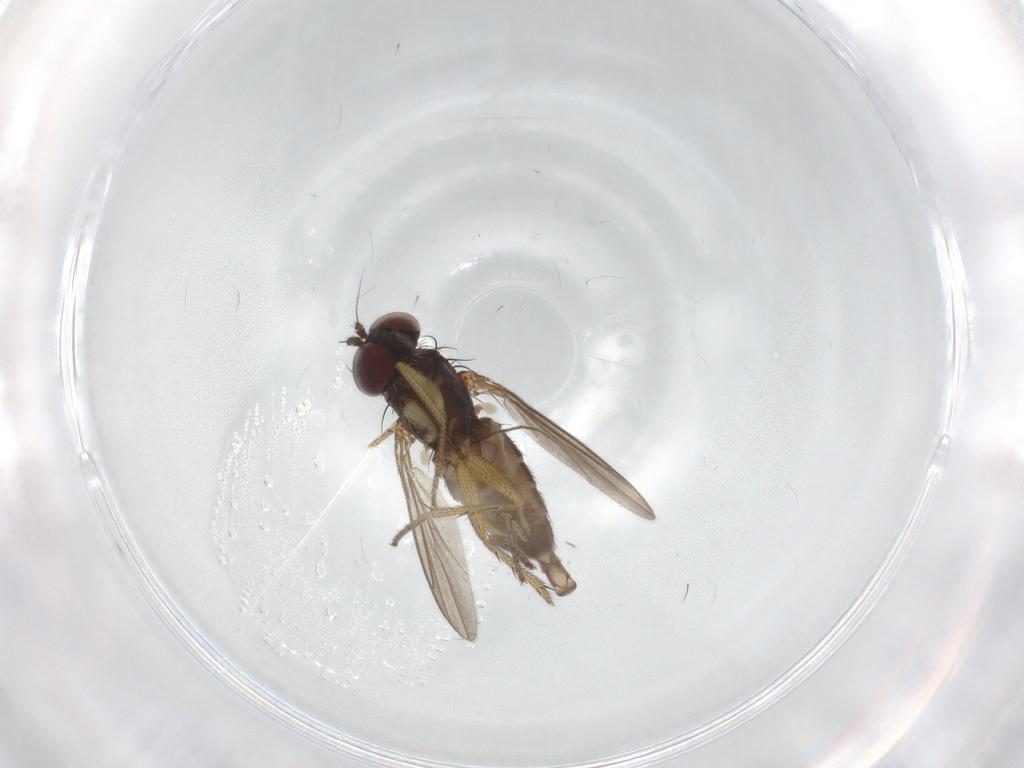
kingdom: Animalia
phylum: Arthropoda
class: Insecta
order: Diptera
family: Chironomidae
